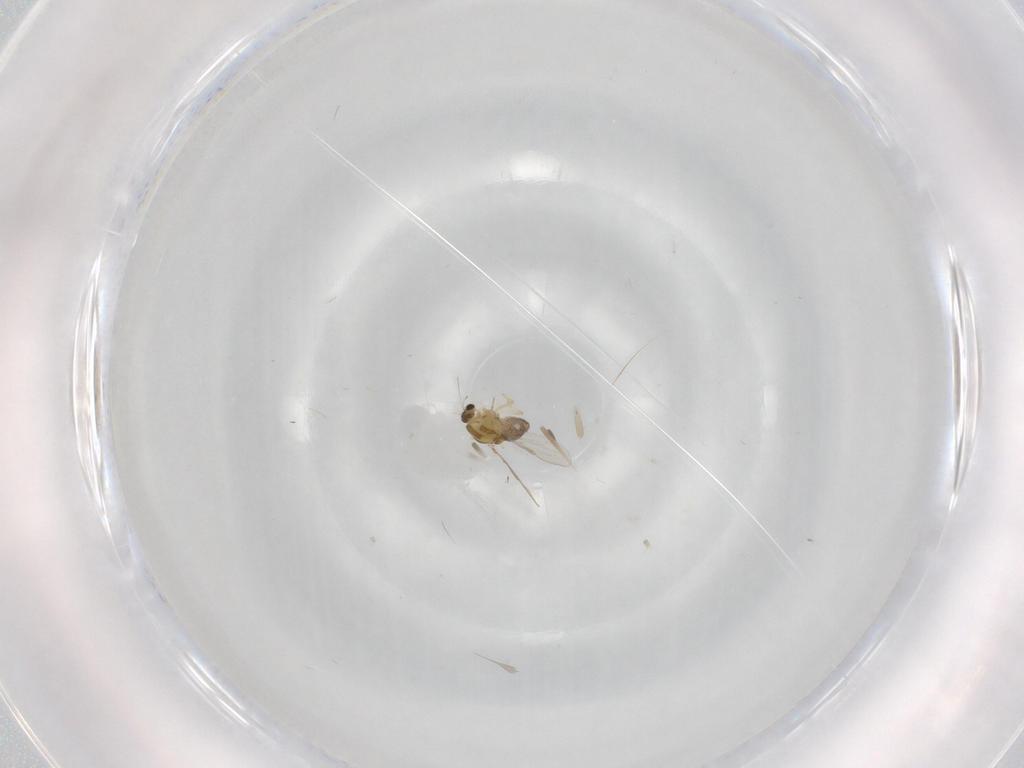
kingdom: Animalia
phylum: Arthropoda
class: Insecta
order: Diptera
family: Chironomidae
